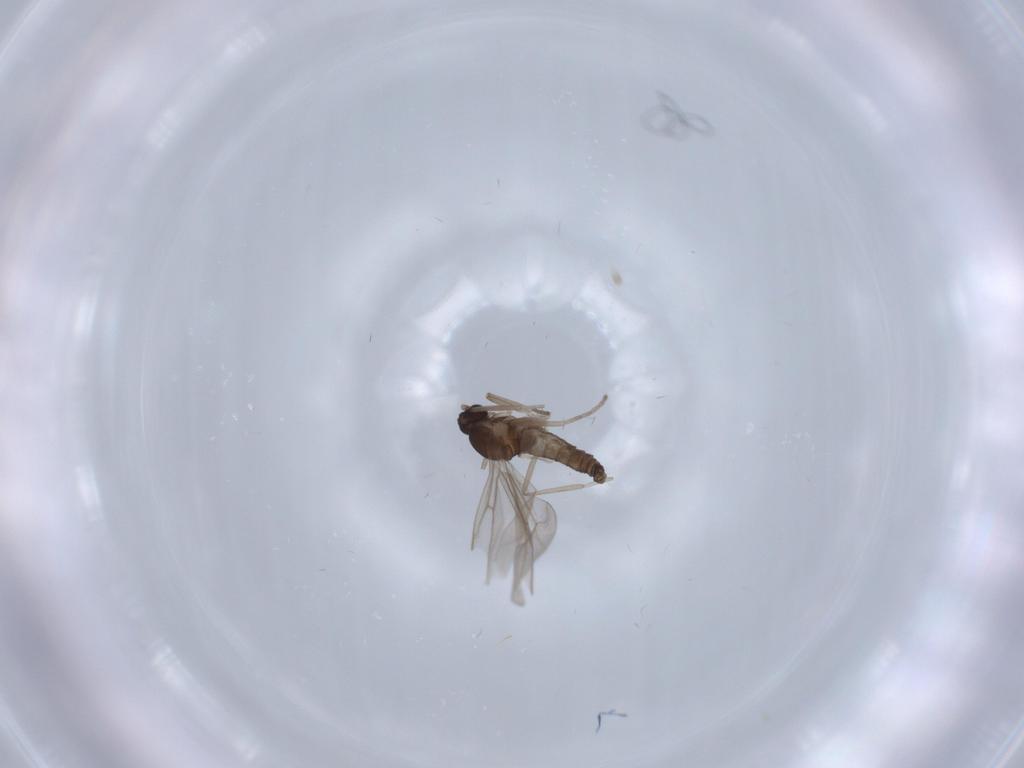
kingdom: Animalia
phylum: Arthropoda
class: Insecta
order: Diptera
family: Cecidomyiidae
